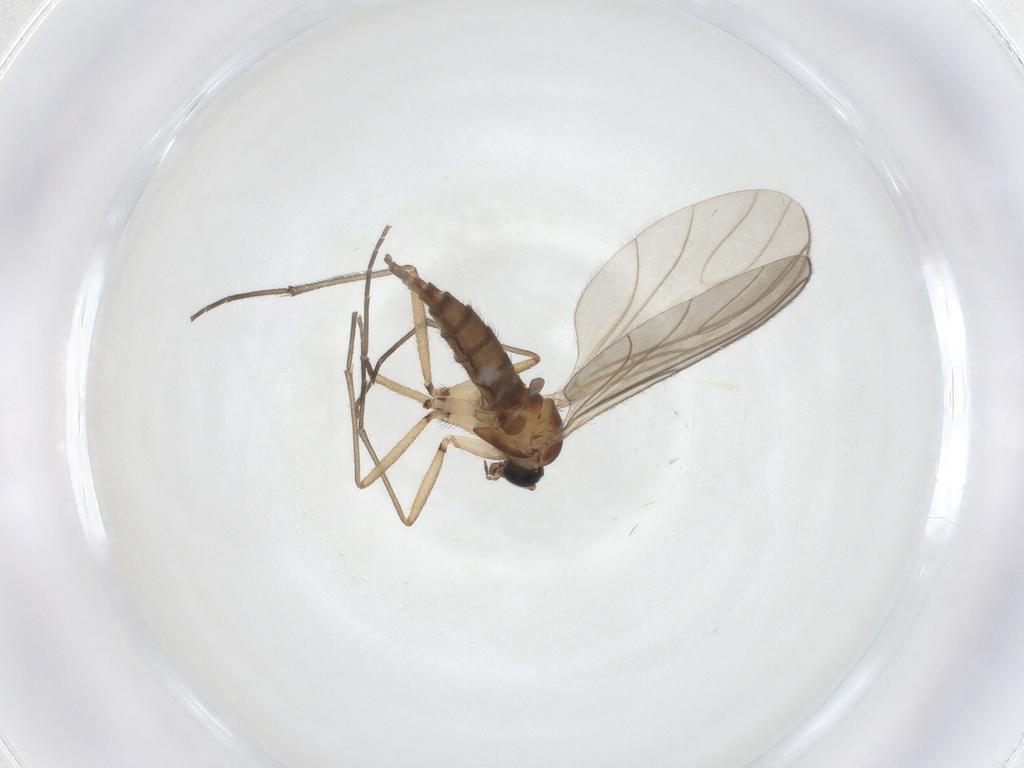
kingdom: Animalia
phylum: Arthropoda
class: Insecta
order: Diptera
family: Sciaridae
